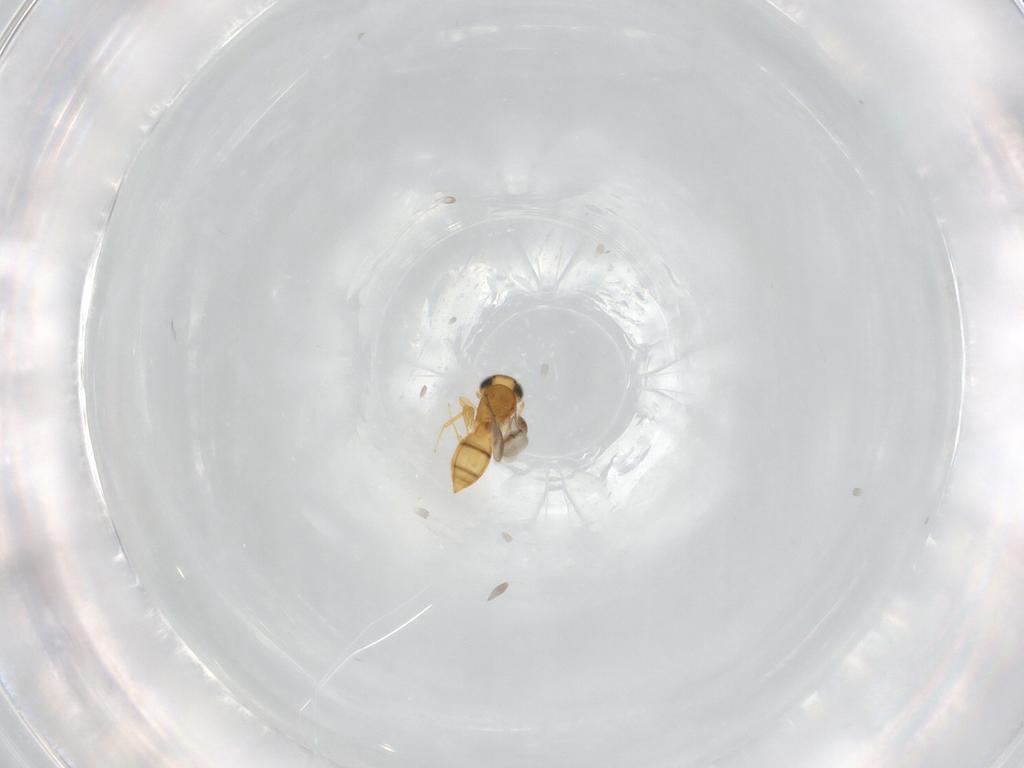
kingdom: Animalia
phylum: Arthropoda
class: Insecta
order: Hymenoptera
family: Scelionidae
